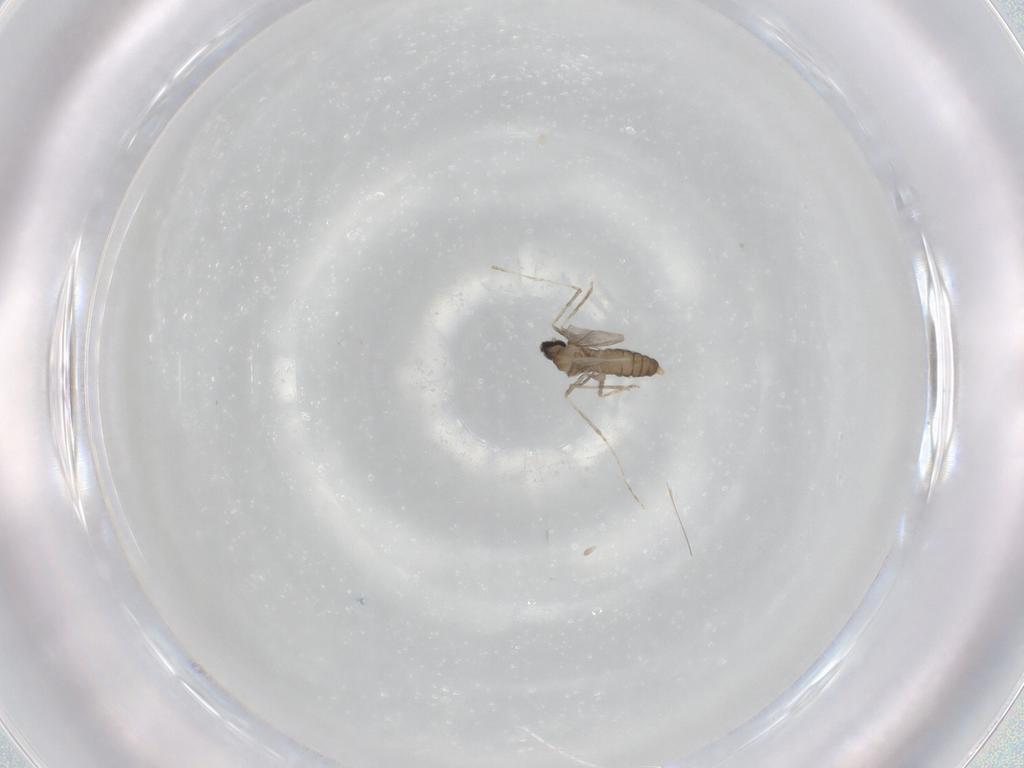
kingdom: Animalia
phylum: Arthropoda
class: Insecta
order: Diptera
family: Cecidomyiidae
